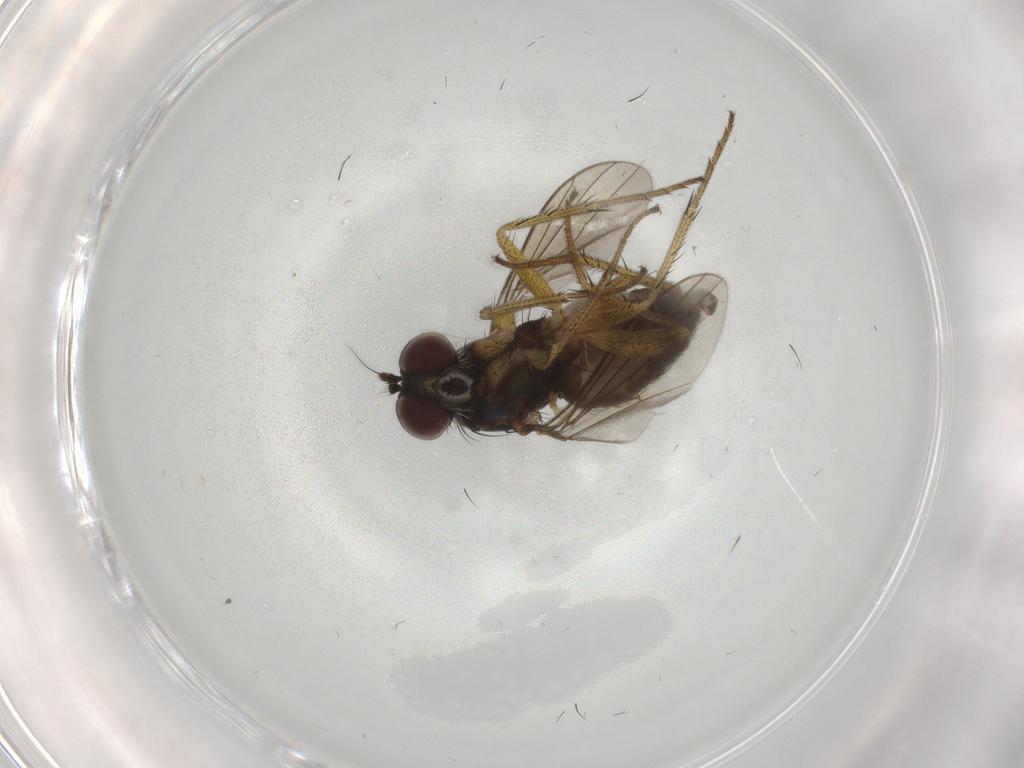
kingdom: Animalia
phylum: Arthropoda
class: Insecta
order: Diptera
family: Dolichopodidae
